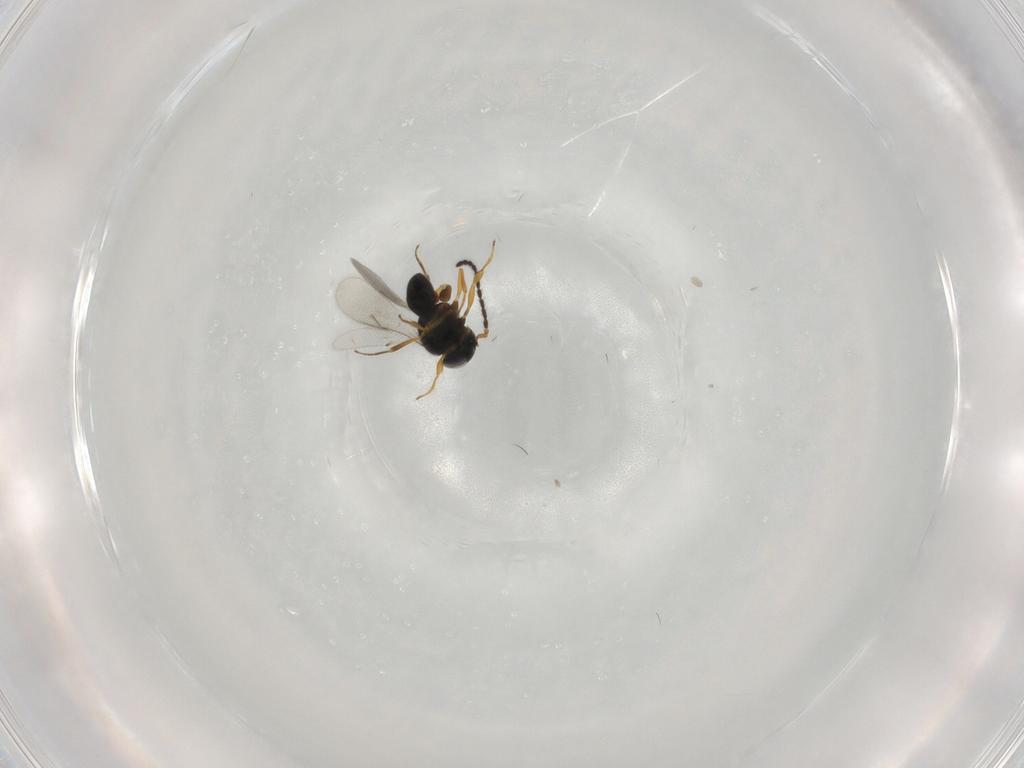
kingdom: Animalia
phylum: Arthropoda
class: Insecta
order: Hymenoptera
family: Scelionidae
